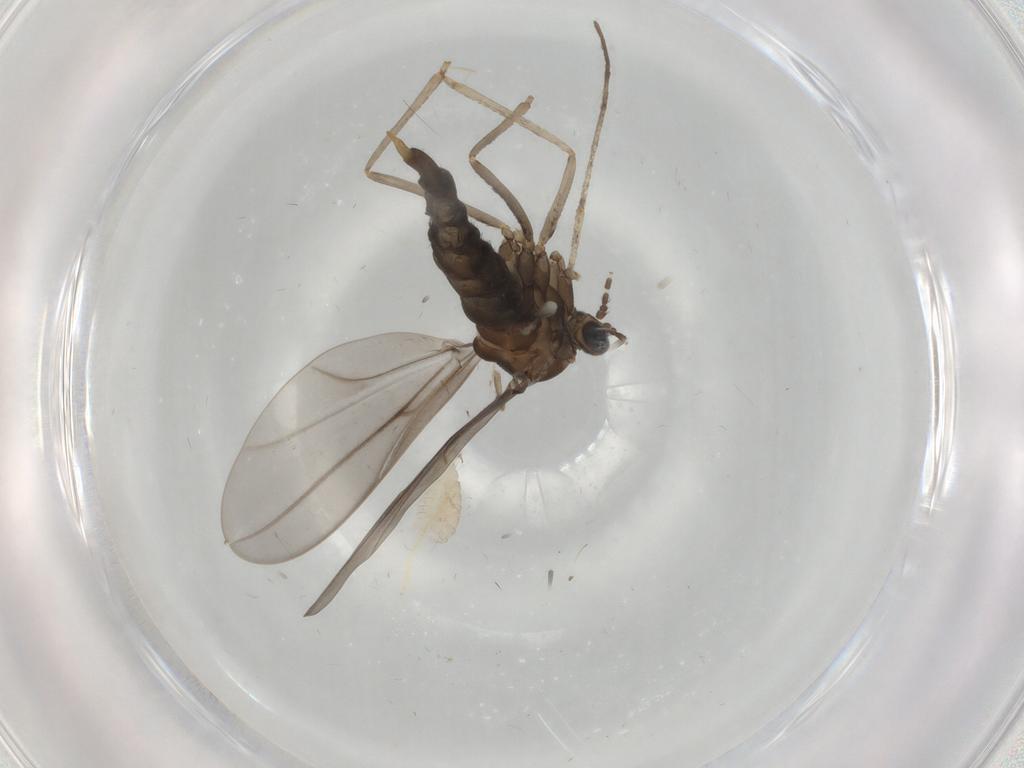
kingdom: Animalia
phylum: Arthropoda
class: Insecta
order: Diptera
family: Cecidomyiidae
